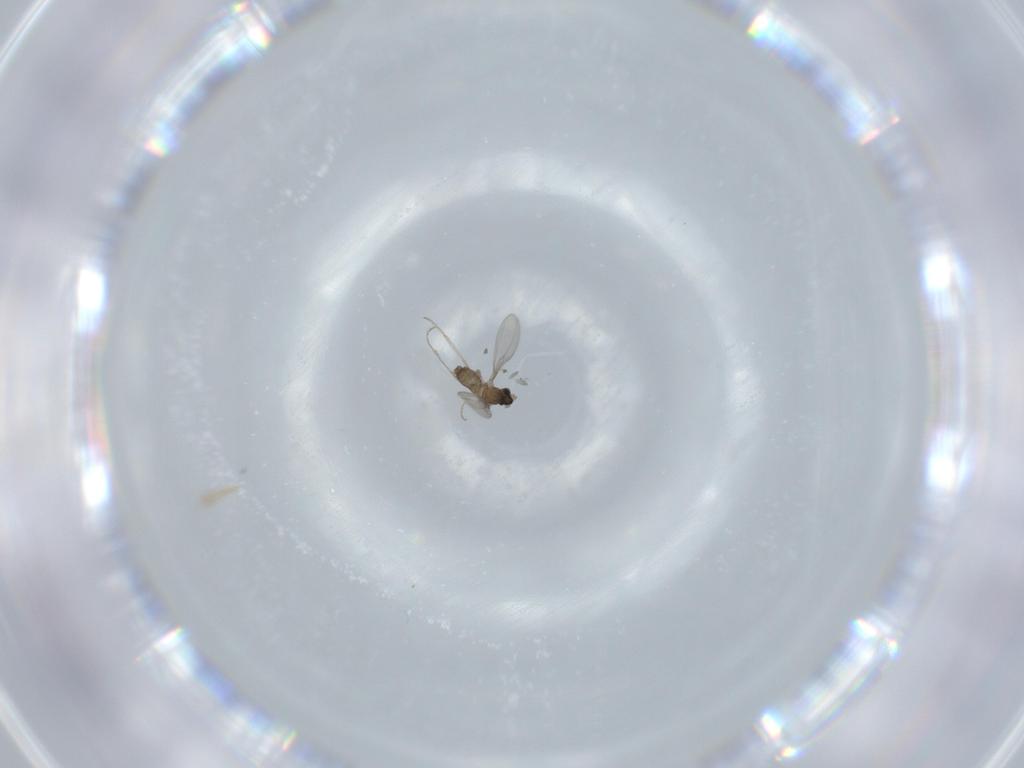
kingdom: Animalia
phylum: Arthropoda
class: Insecta
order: Diptera
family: Cecidomyiidae
